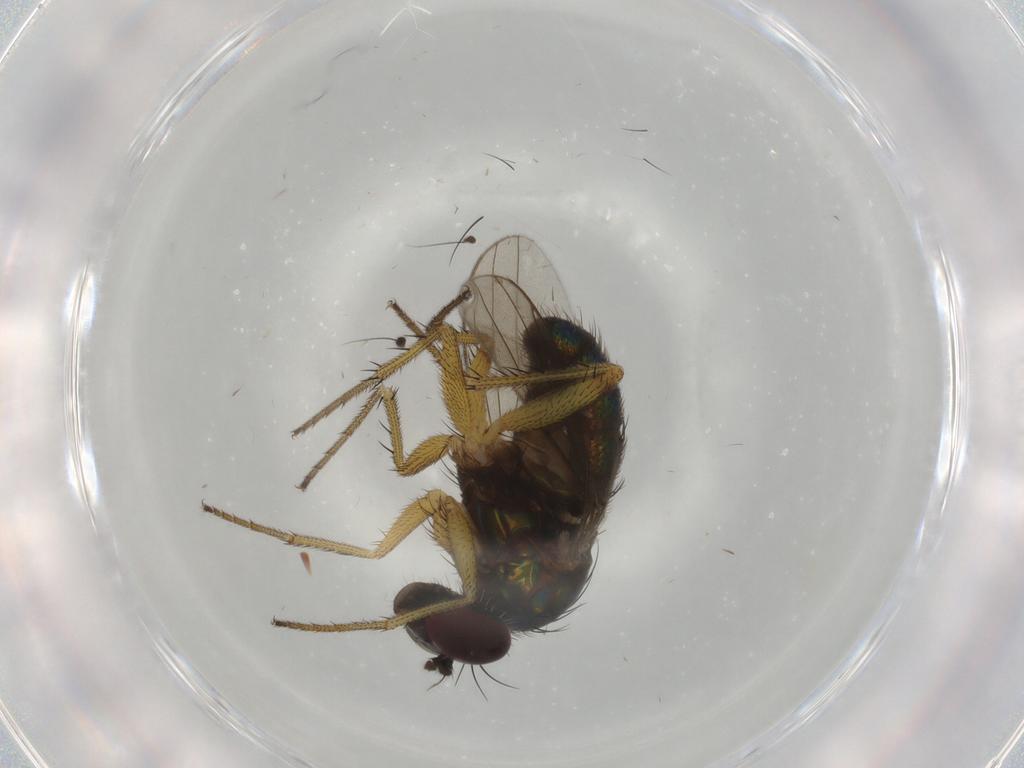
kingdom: Animalia
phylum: Arthropoda
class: Insecta
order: Diptera
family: Dolichopodidae
